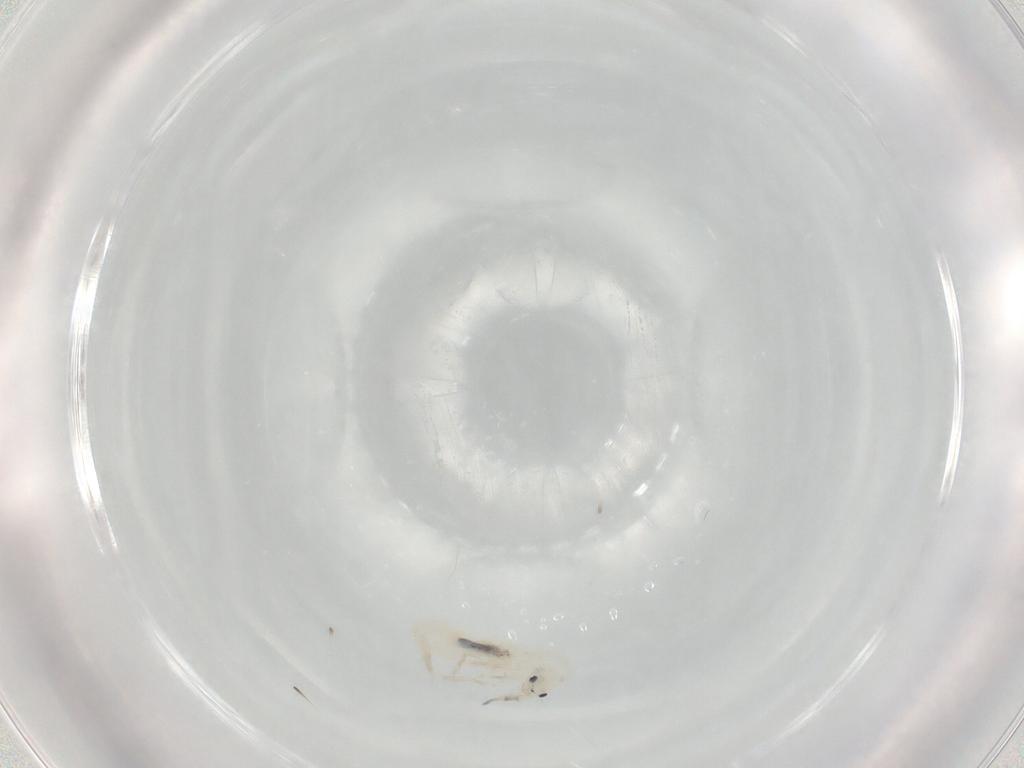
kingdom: Animalia
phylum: Arthropoda
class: Collembola
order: Entomobryomorpha
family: Entomobryidae
